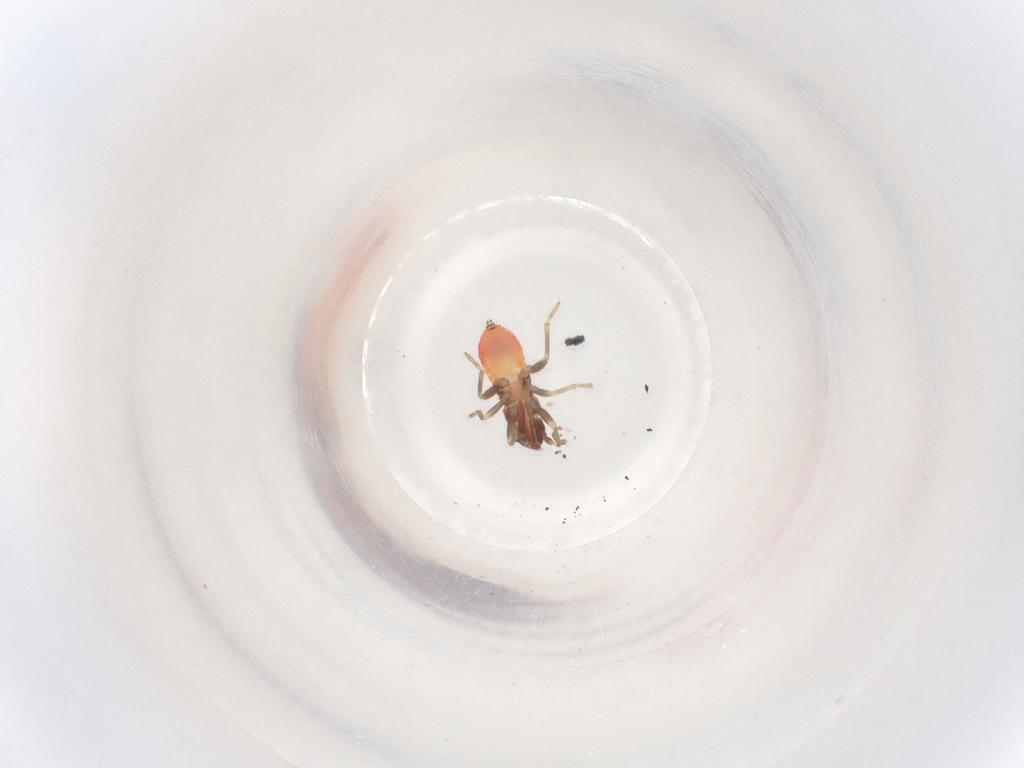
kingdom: Animalia
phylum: Arthropoda
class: Insecta
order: Hemiptera
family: Rhyparochromidae
